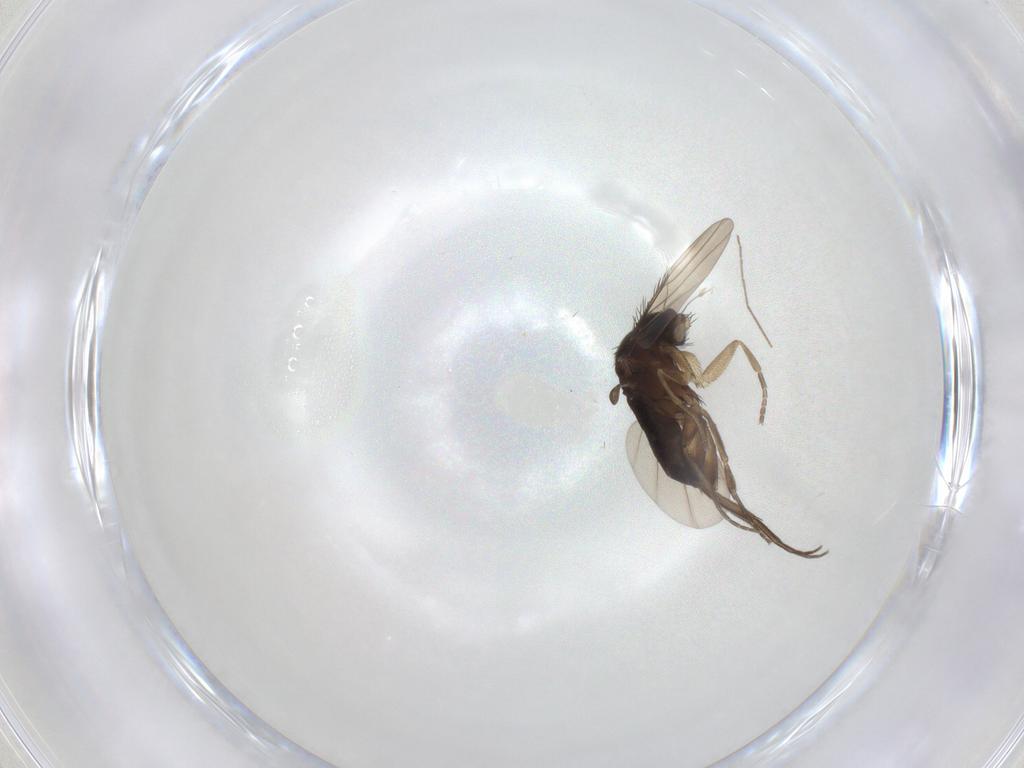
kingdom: Animalia
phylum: Arthropoda
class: Insecta
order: Diptera
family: Phoridae
